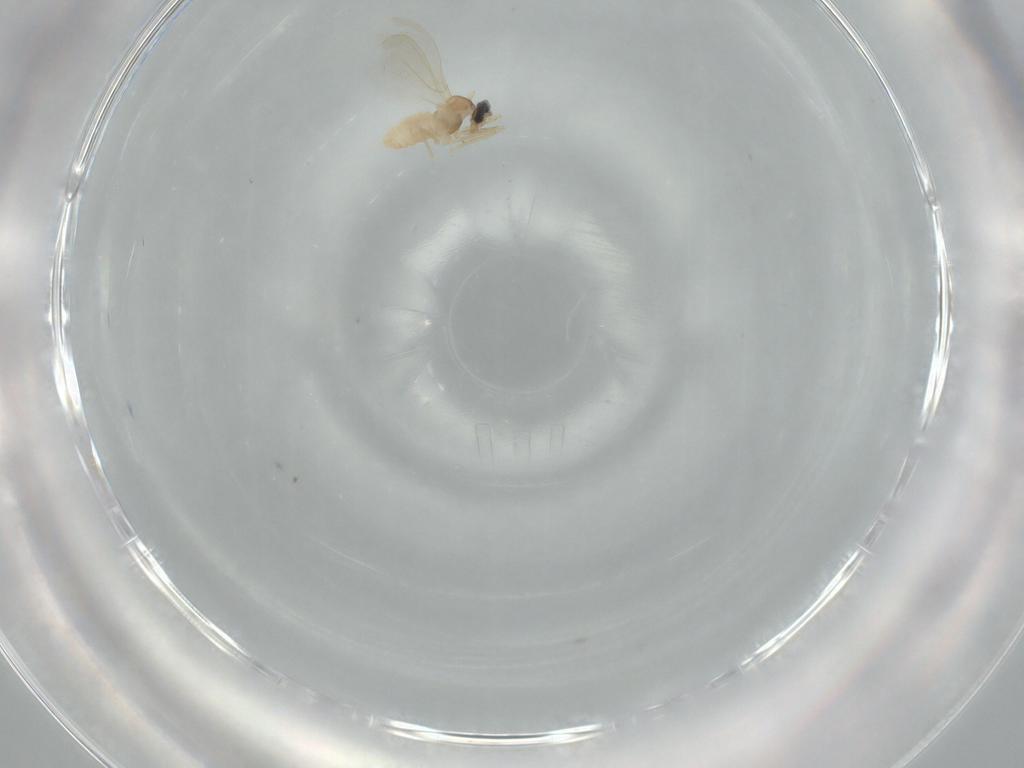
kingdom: Animalia
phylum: Arthropoda
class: Insecta
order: Diptera
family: Cecidomyiidae
